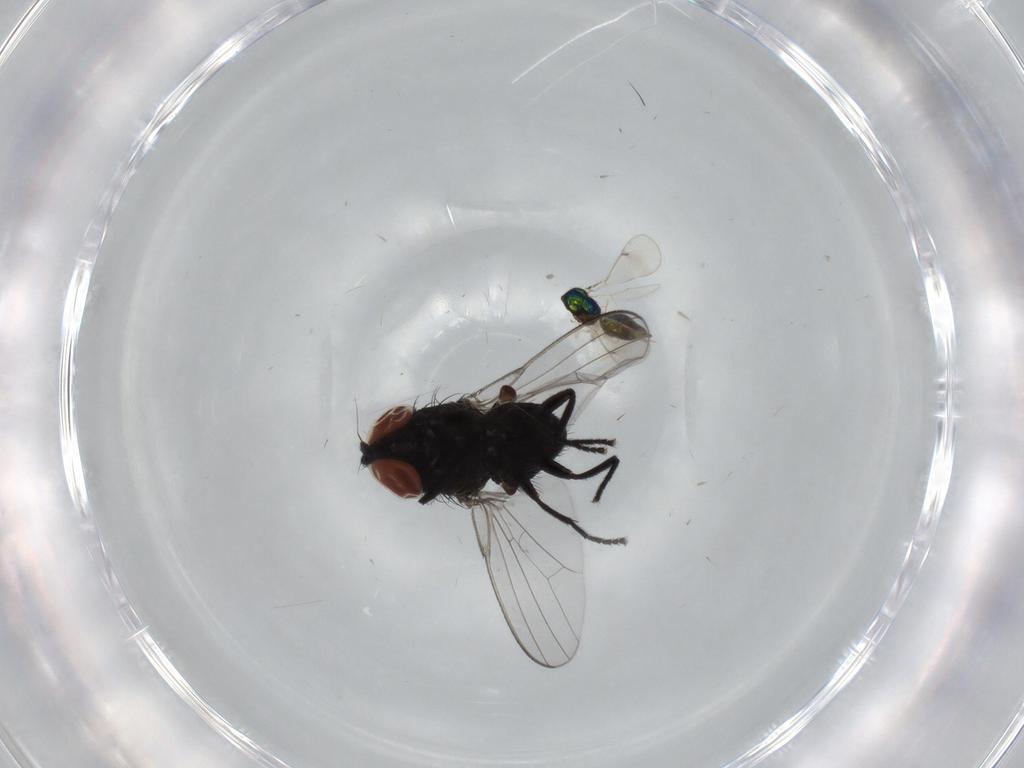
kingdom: Animalia
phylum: Arthropoda
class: Insecta
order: Diptera
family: Milichiidae
